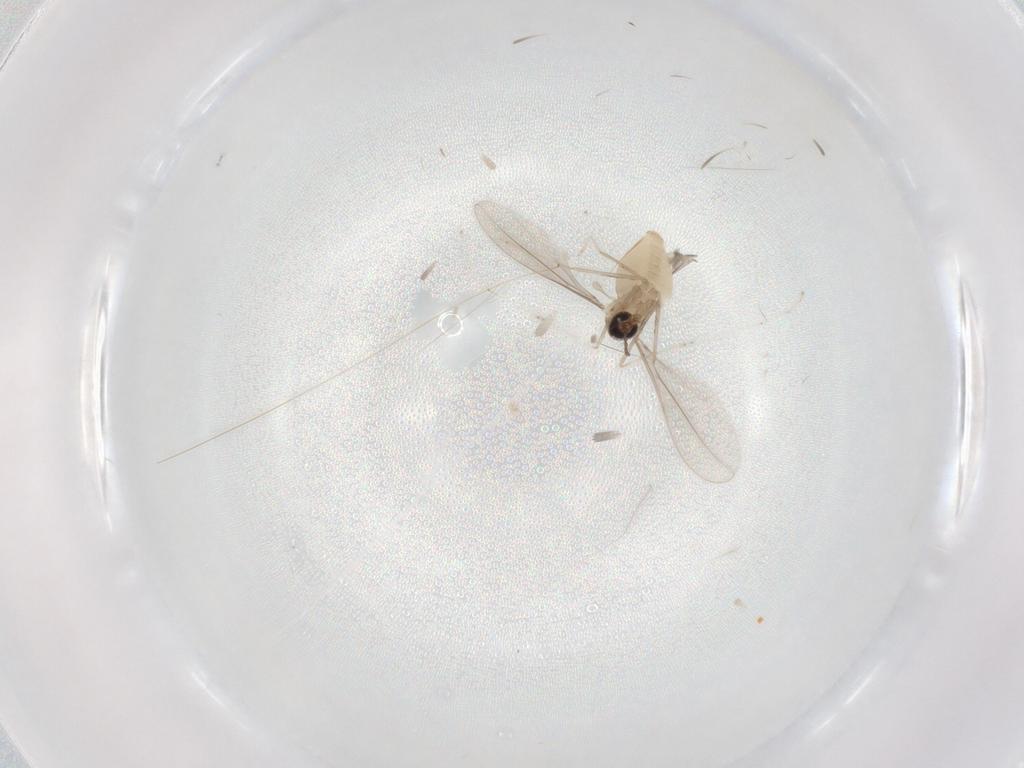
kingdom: Animalia
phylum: Arthropoda
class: Insecta
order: Diptera
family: Cecidomyiidae
